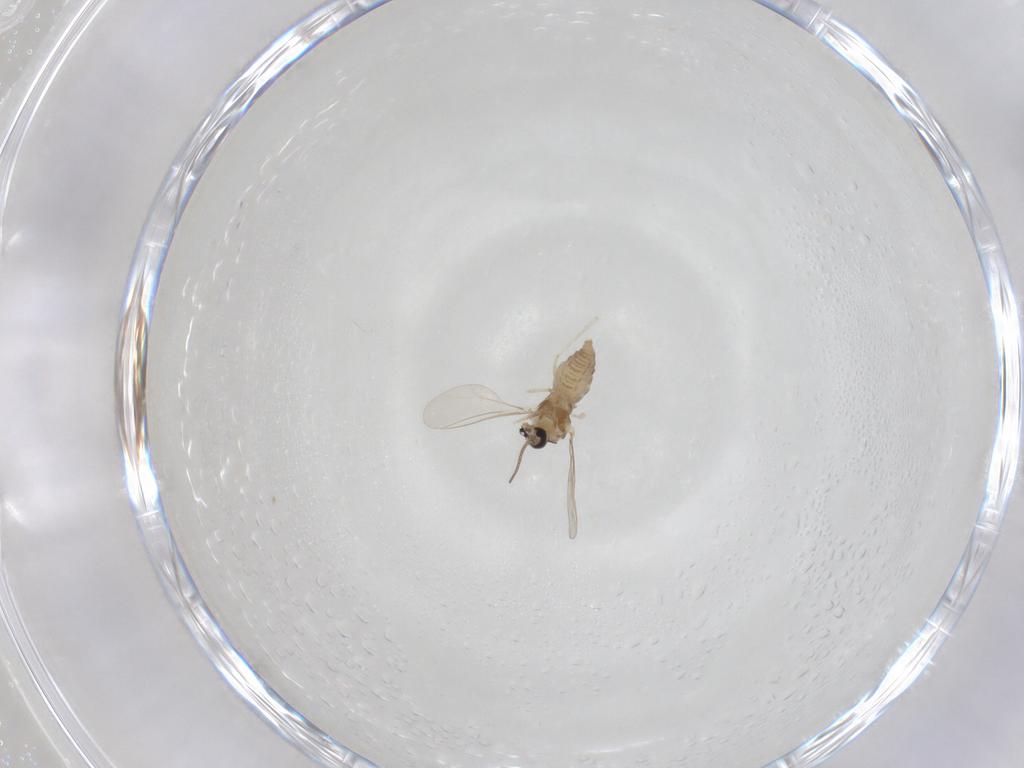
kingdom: Animalia
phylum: Arthropoda
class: Insecta
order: Diptera
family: Cecidomyiidae
